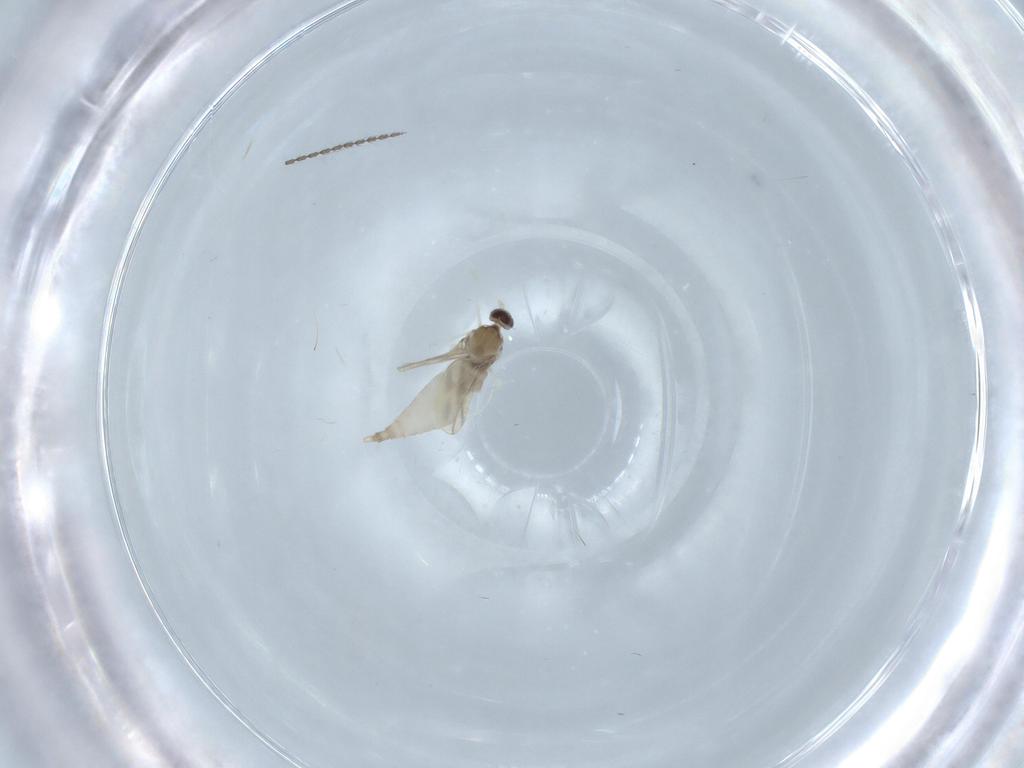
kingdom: Animalia
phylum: Arthropoda
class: Insecta
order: Diptera
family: Cecidomyiidae
